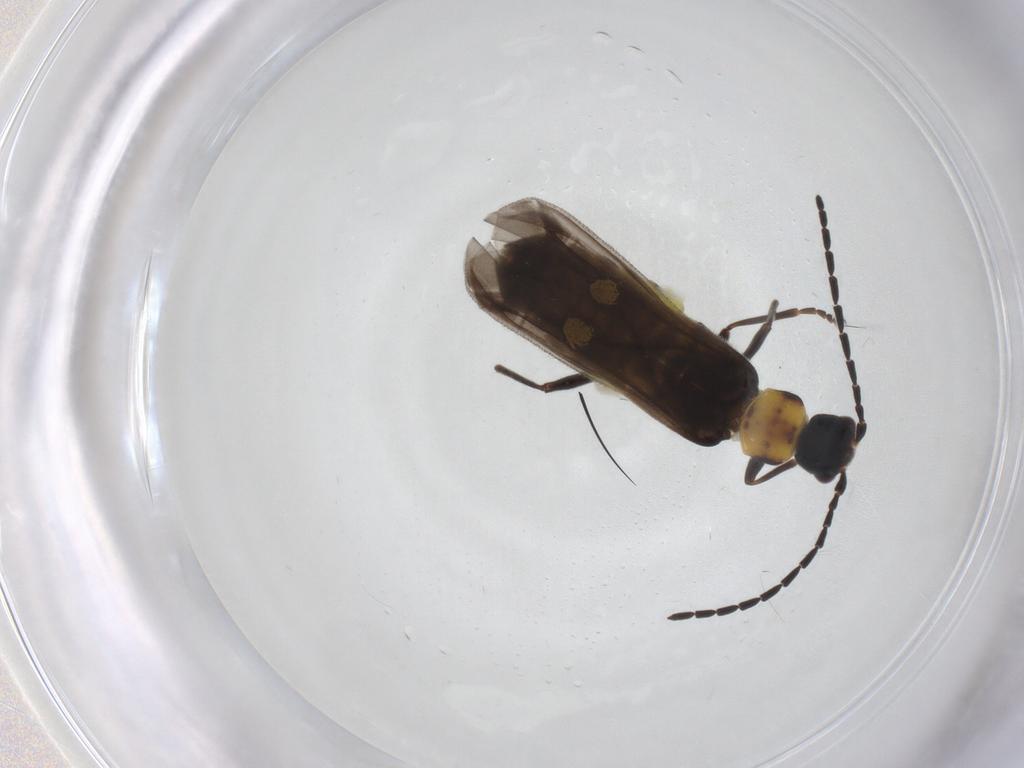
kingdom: Animalia
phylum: Arthropoda
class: Insecta
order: Coleoptera
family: Cantharidae
